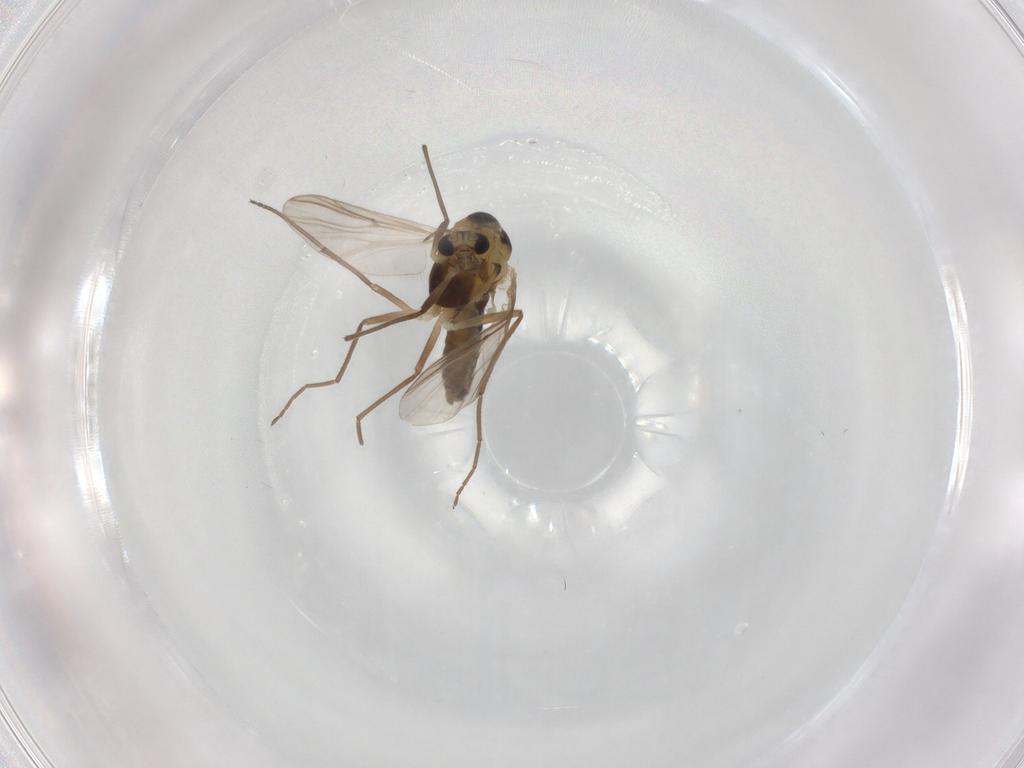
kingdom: Animalia
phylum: Arthropoda
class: Insecta
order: Diptera
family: Chironomidae
